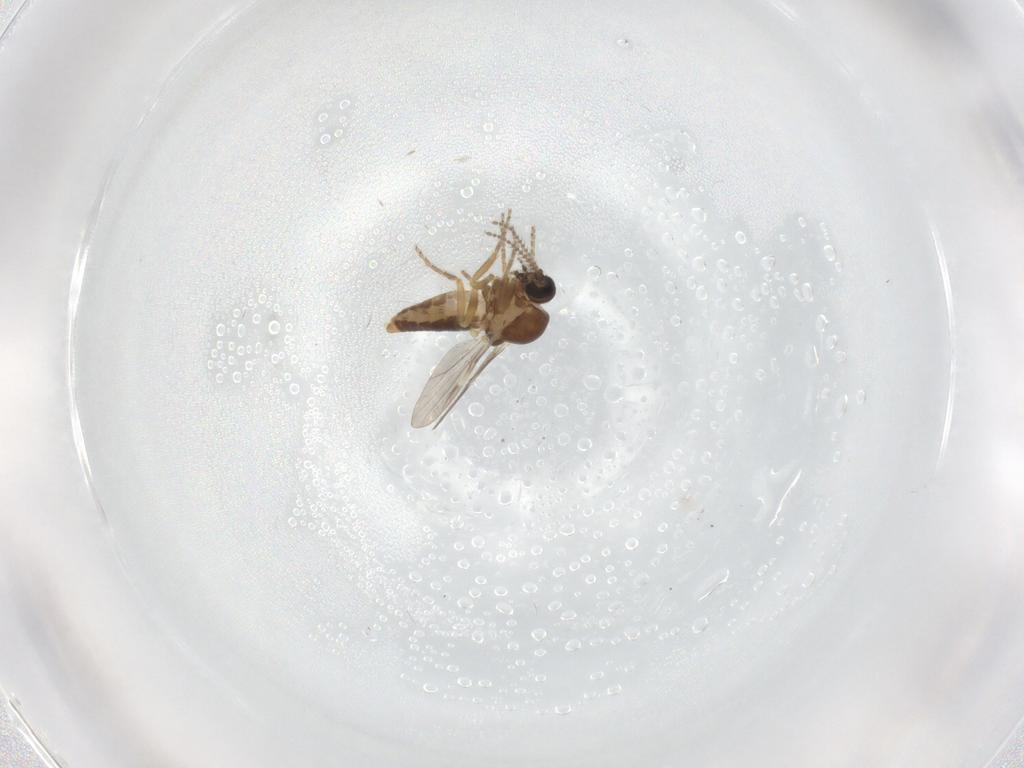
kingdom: Animalia
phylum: Arthropoda
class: Insecta
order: Diptera
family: Ceratopogonidae
